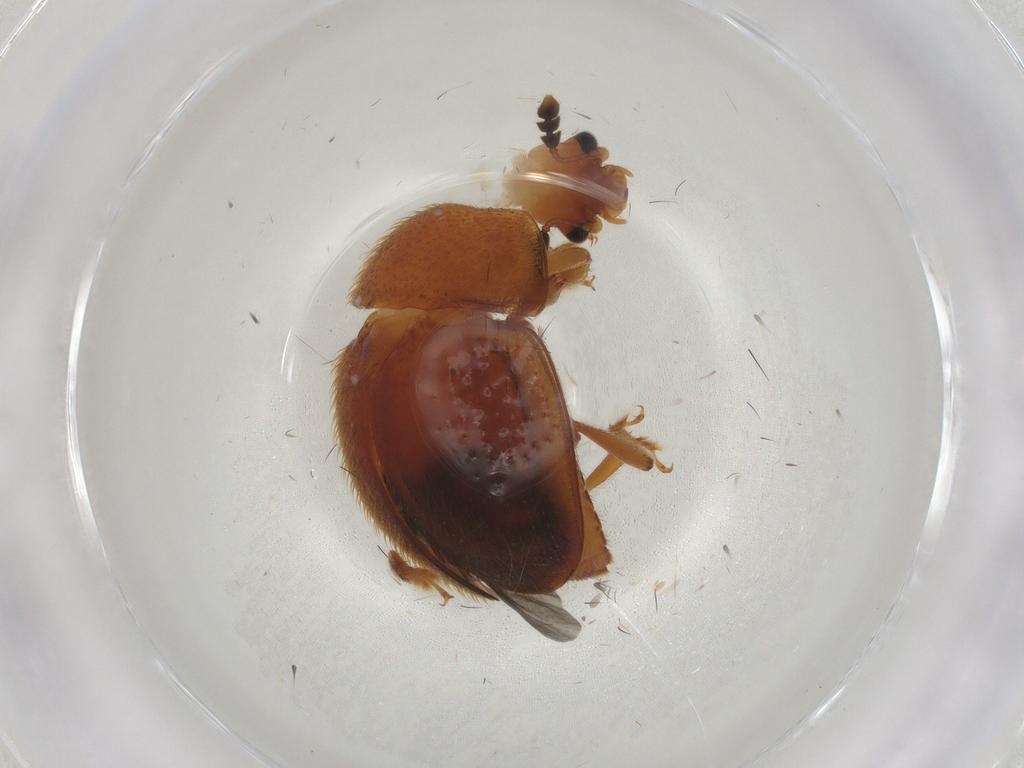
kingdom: Animalia
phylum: Arthropoda
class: Insecta
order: Coleoptera
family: Nitidulidae
